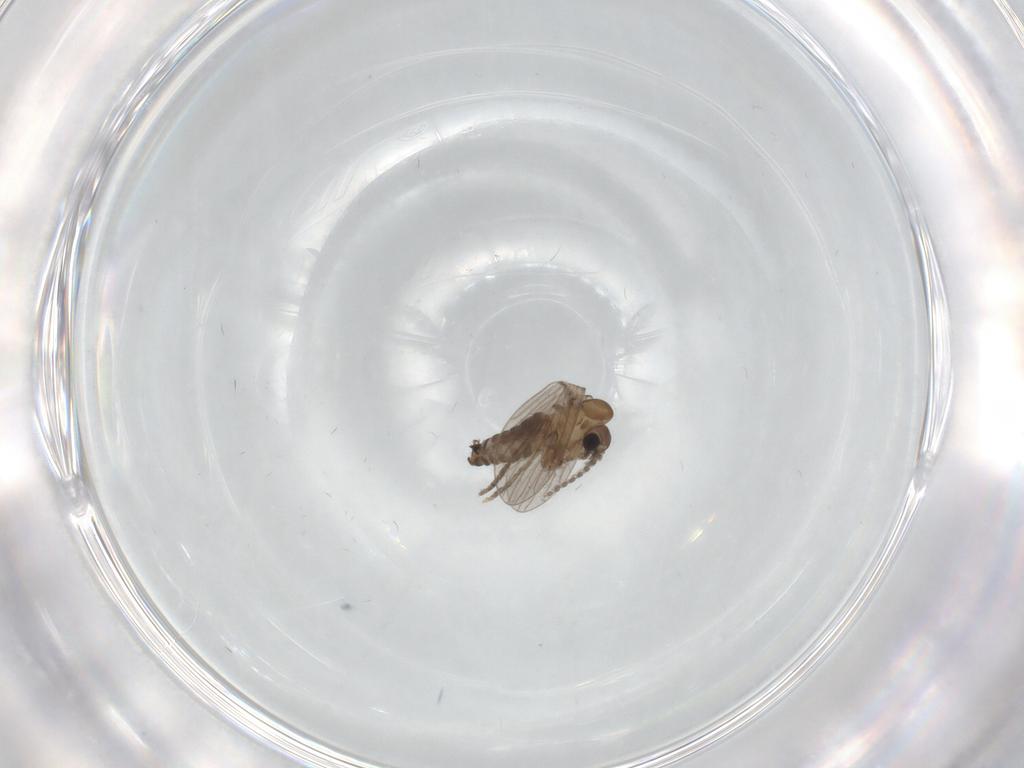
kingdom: Animalia
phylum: Arthropoda
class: Insecta
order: Diptera
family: Ceratopogonidae
